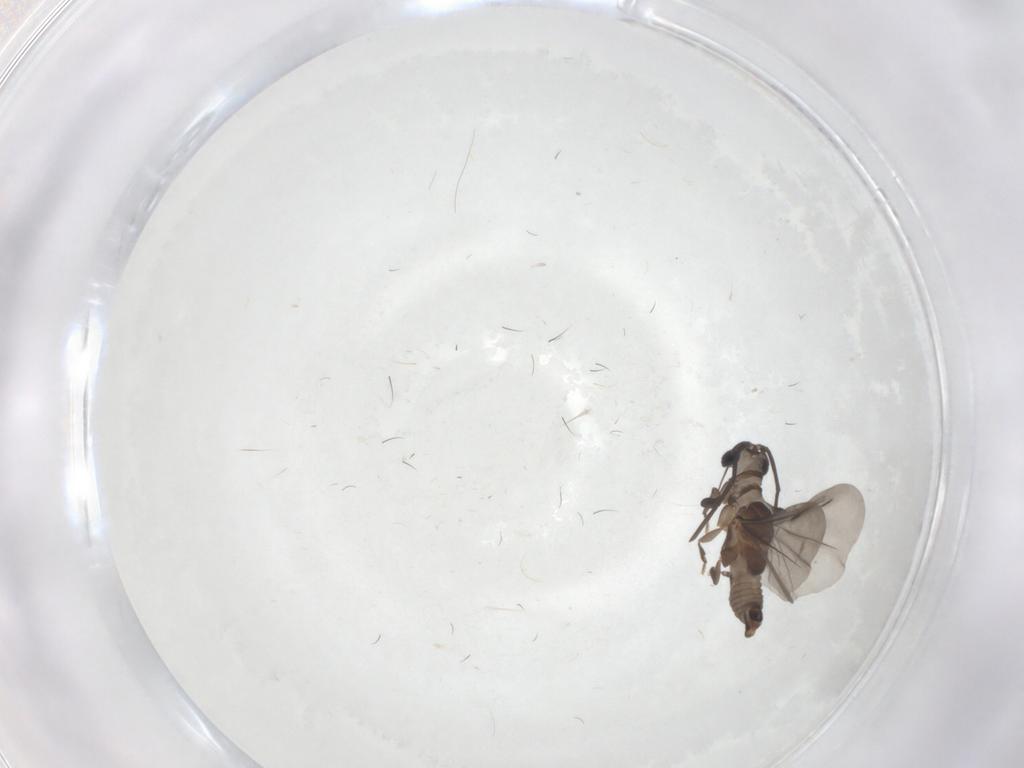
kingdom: Animalia
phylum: Arthropoda
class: Insecta
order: Strepsiptera
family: Myrmecolacidae
